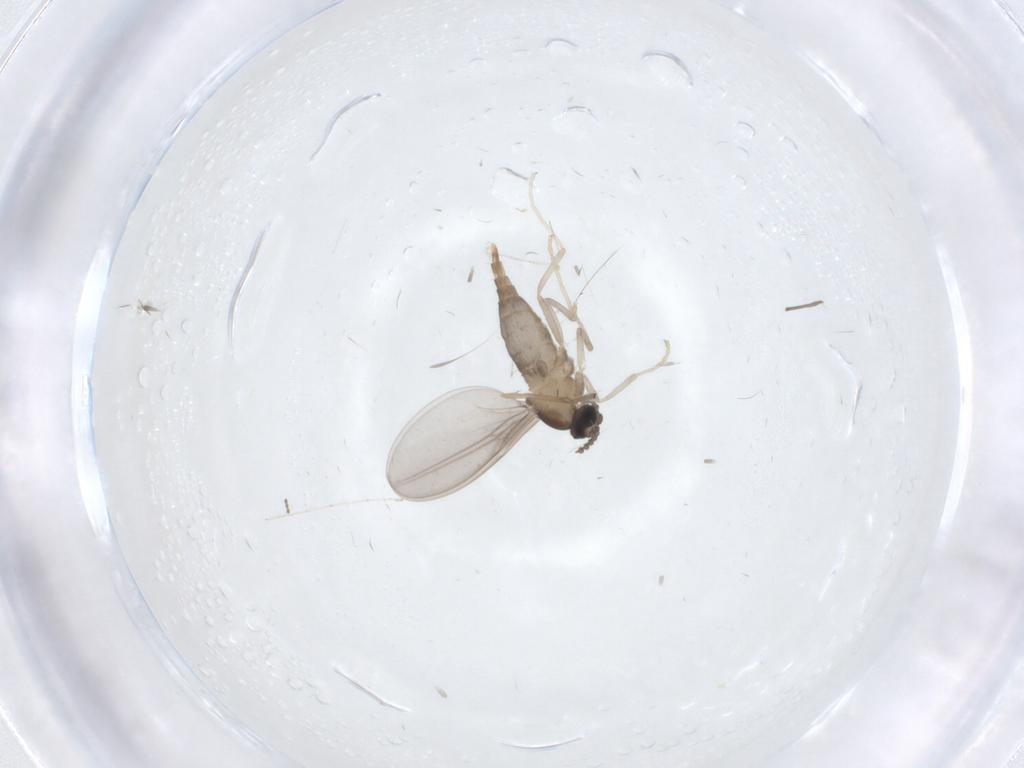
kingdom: Animalia
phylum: Arthropoda
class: Insecta
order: Diptera
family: Cecidomyiidae
